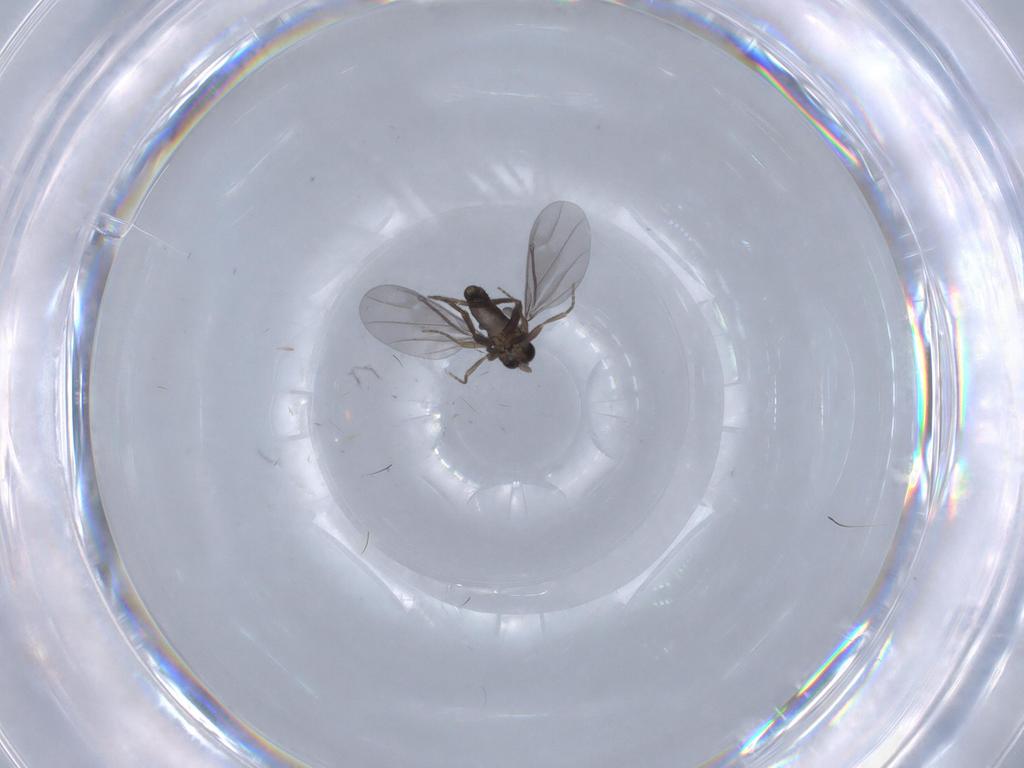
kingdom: Animalia
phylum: Arthropoda
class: Insecta
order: Diptera
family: Phoridae
